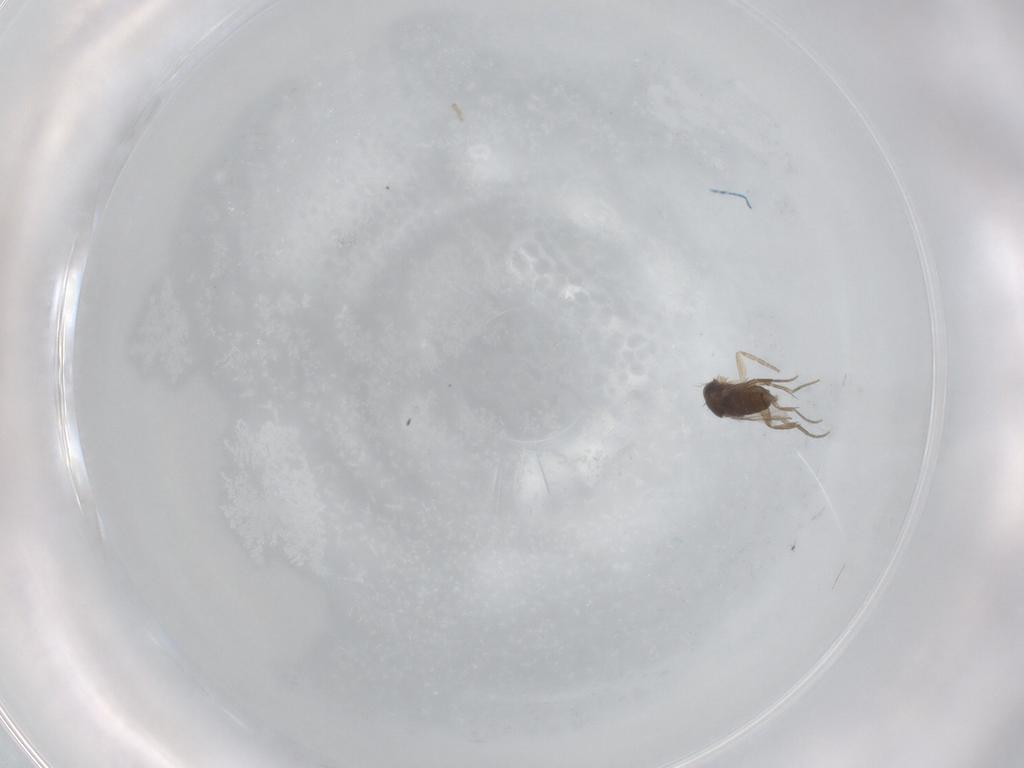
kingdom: Animalia
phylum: Arthropoda
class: Insecta
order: Diptera
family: Phoridae
